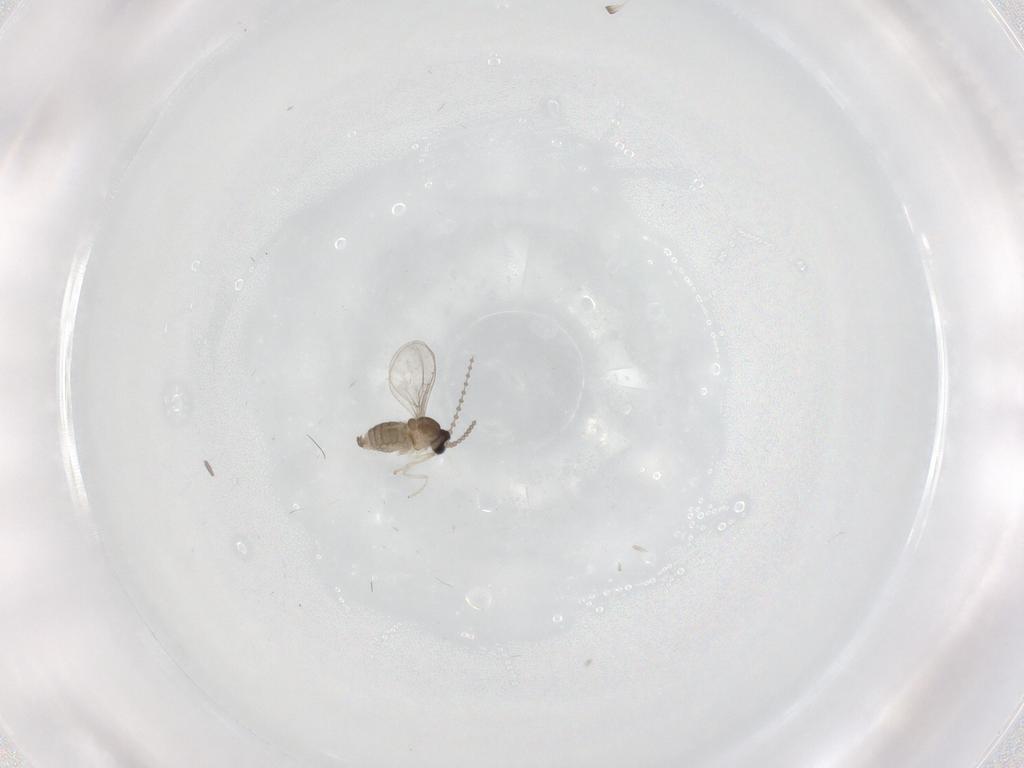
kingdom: Animalia
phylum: Arthropoda
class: Insecta
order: Diptera
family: Cecidomyiidae
